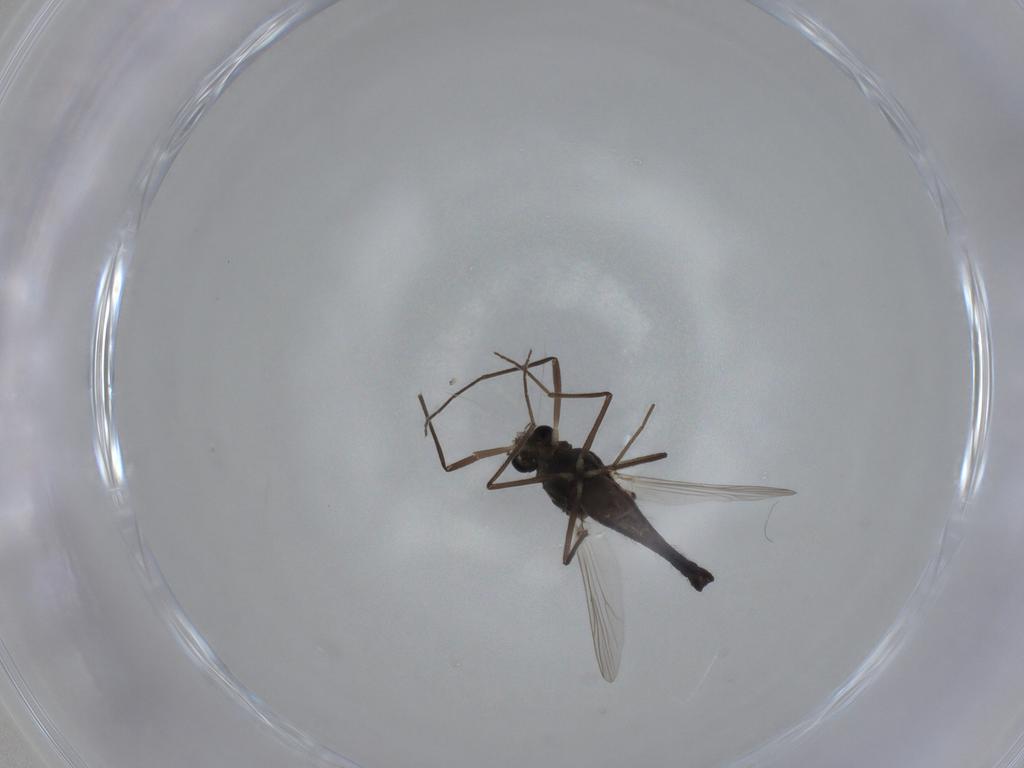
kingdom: Animalia
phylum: Arthropoda
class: Insecta
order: Diptera
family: Chironomidae
